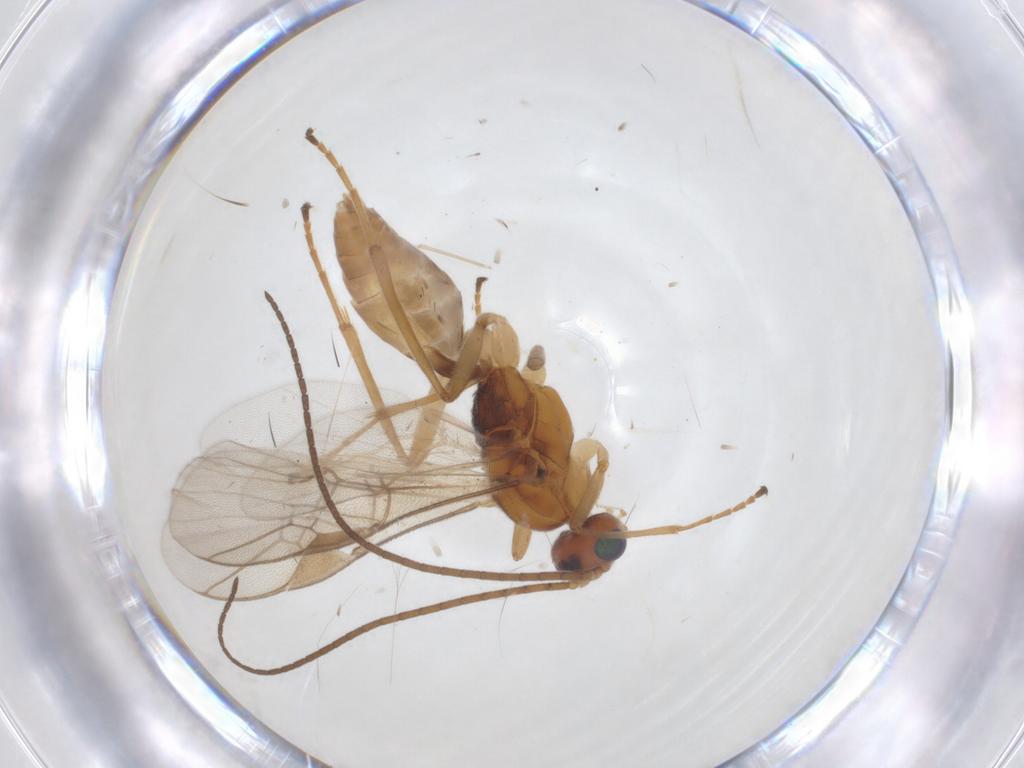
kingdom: Animalia
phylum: Arthropoda
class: Insecta
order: Hymenoptera
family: Braconidae
